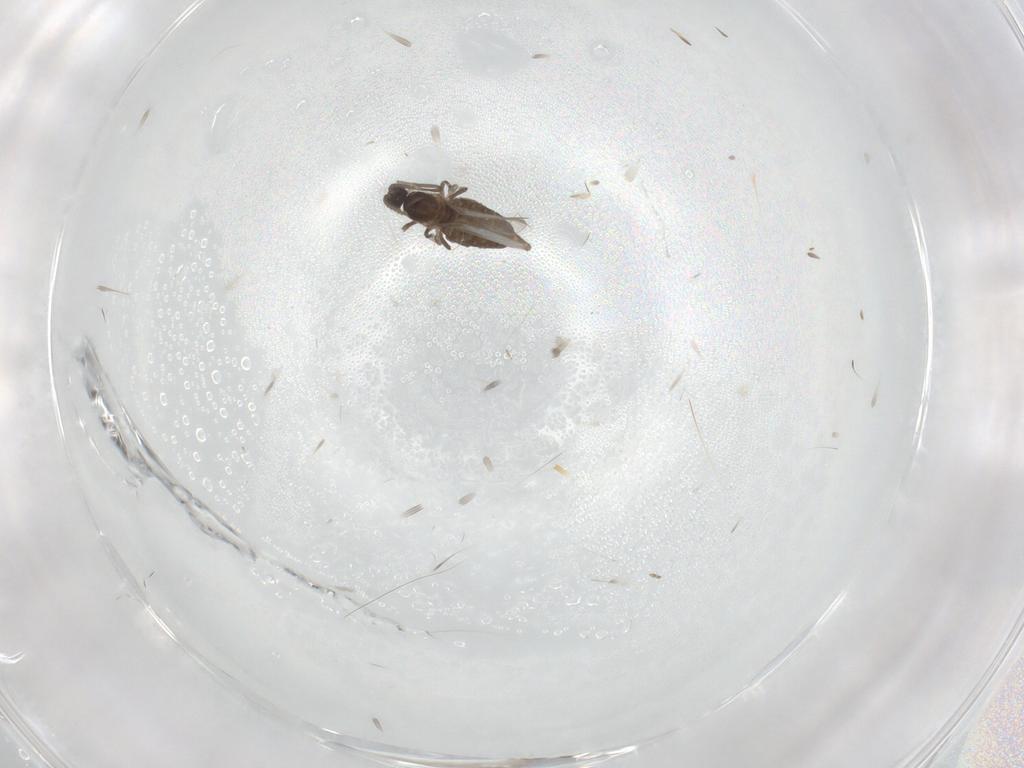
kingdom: Animalia
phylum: Arthropoda
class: Insecta
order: Diptera
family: Cecidomyiidae
